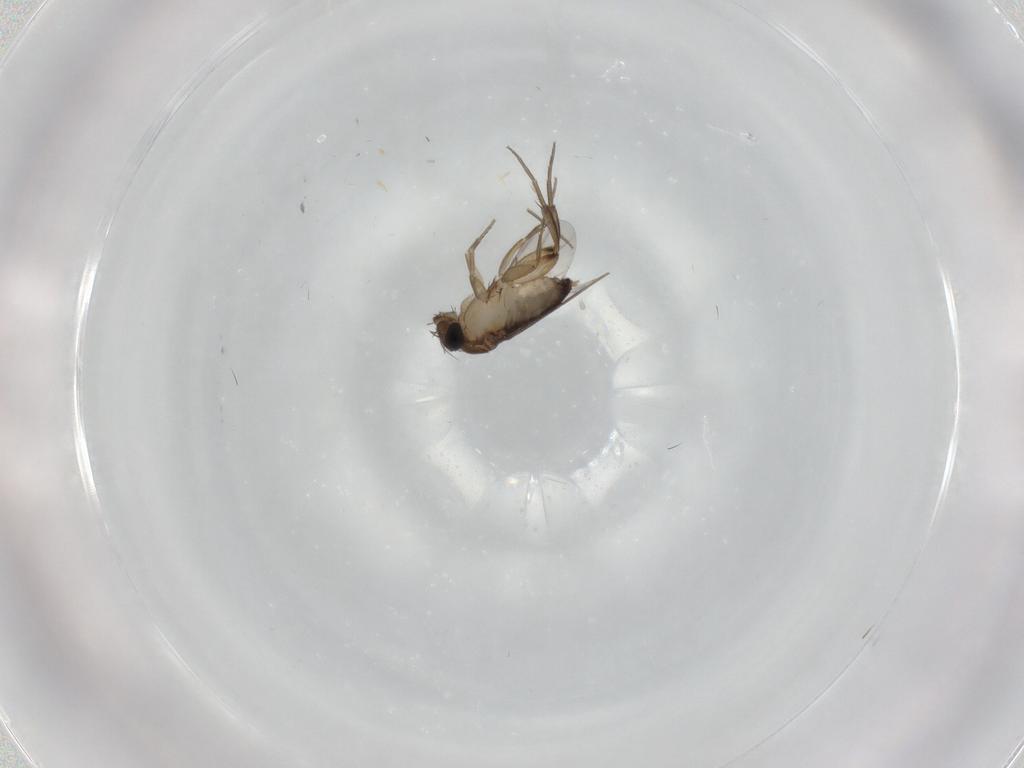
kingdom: Animalia
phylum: Arthropoda
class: Insecta
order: Diptera
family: Phoridae
